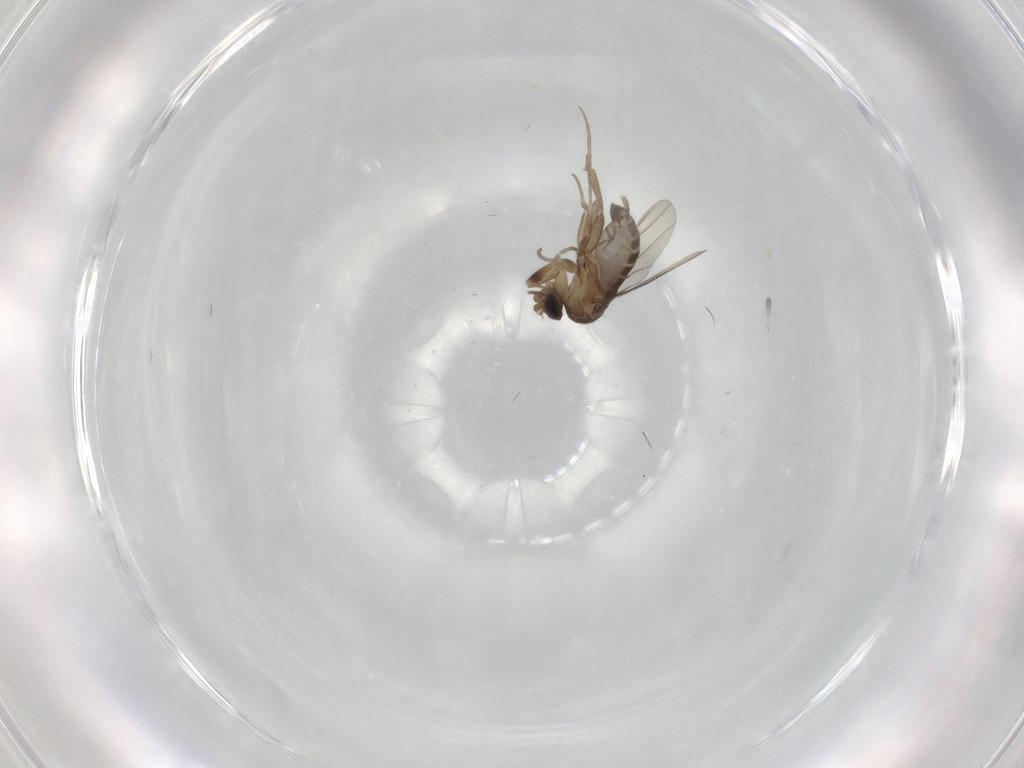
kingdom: Animalia
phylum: Arthropoda
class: Insecta
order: Diptera
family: Phoridae
